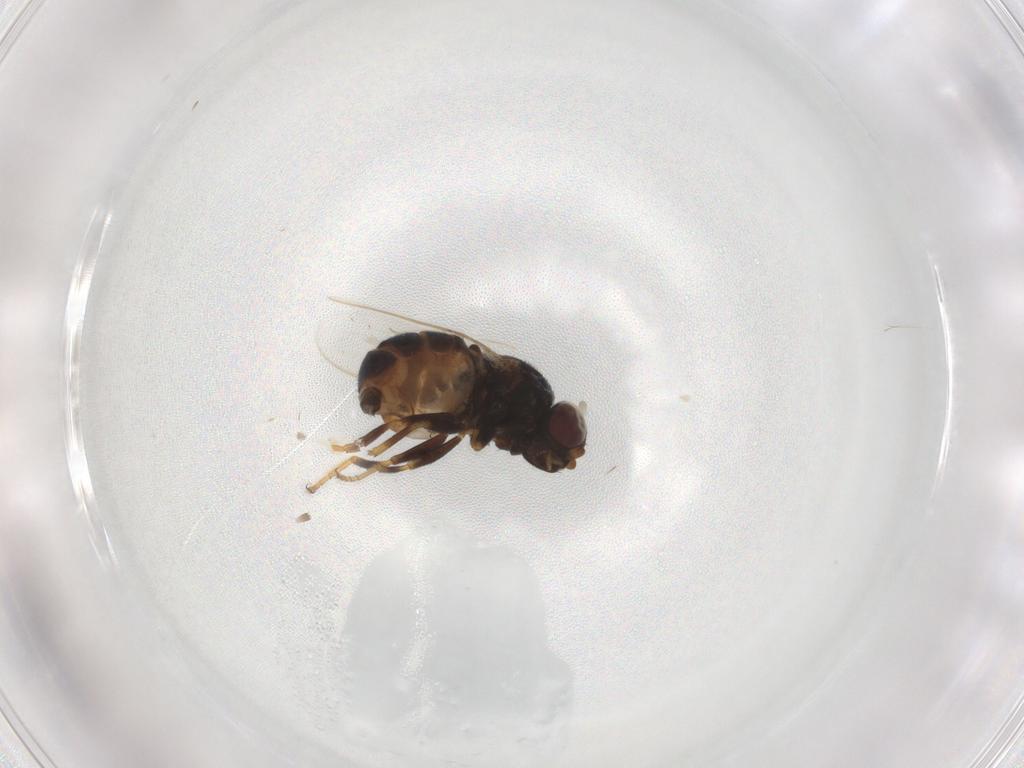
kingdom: Animalia
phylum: Arthropoda
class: Insecta
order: Diptera
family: Chloropidae
